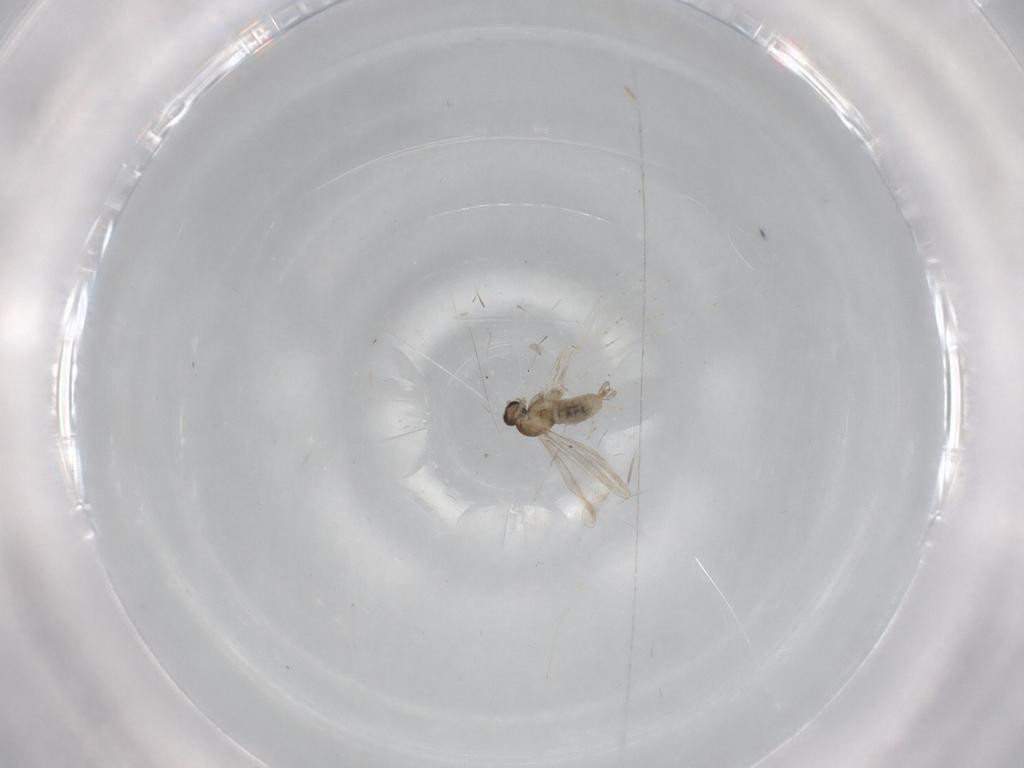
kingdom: Animalia
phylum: Arthropoda
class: Insecta
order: Diptera
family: Cecidomyiidae
